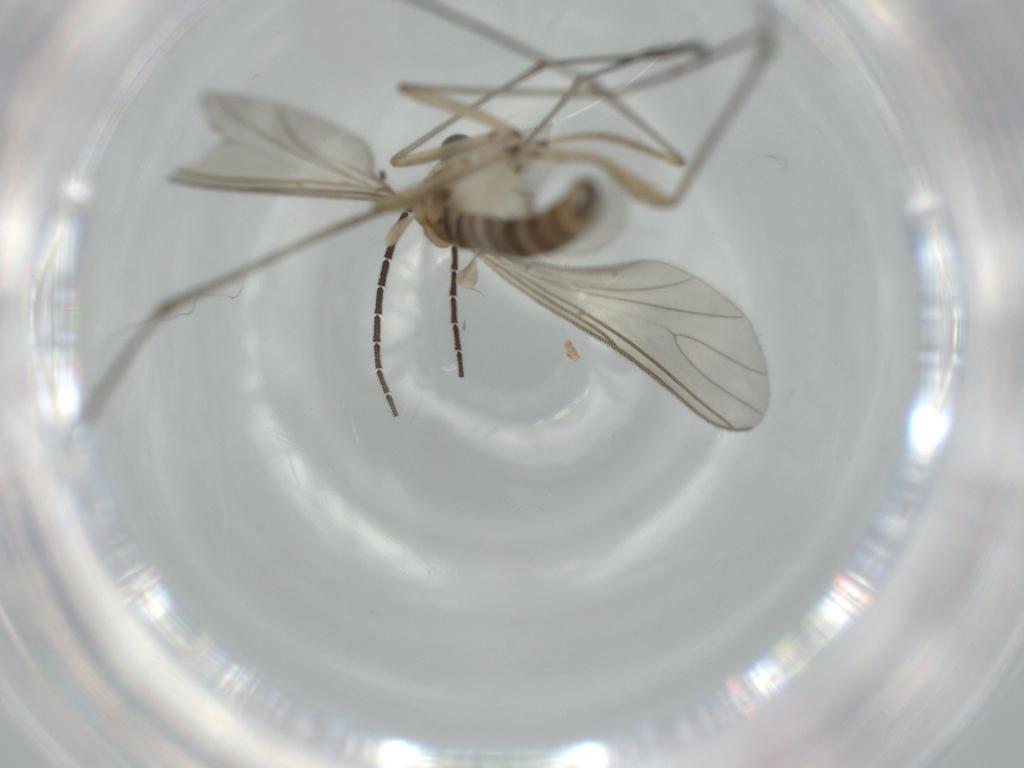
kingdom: Animalia
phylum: Arthropoda
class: Insecta
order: Diptera
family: Sciaridae
